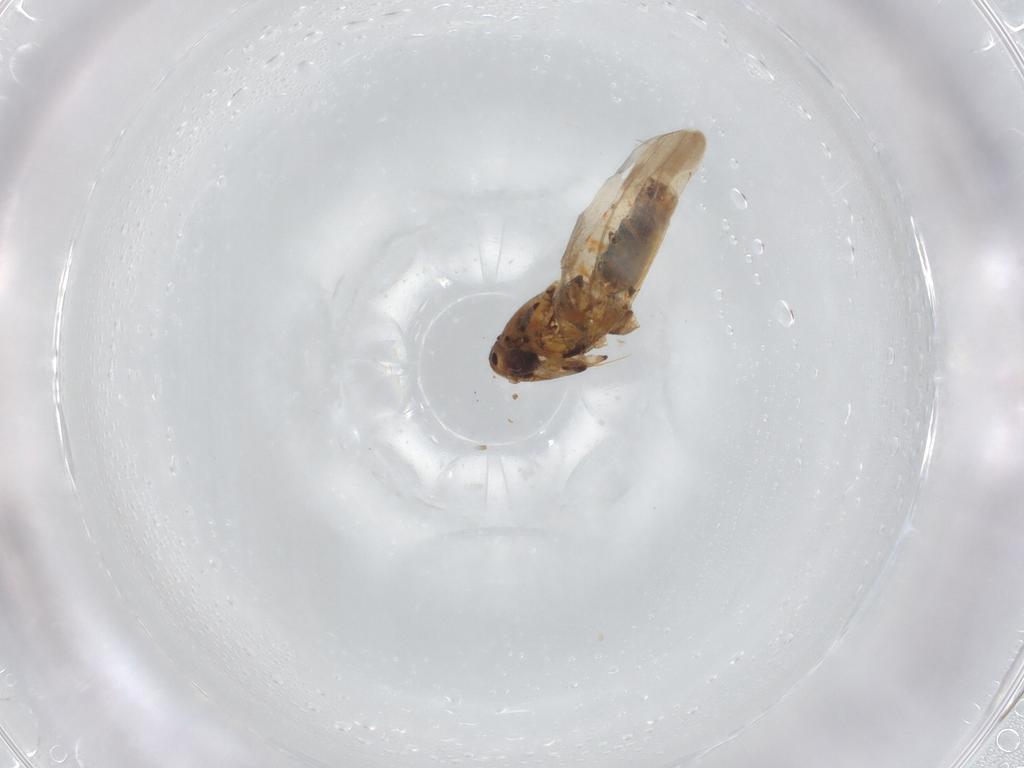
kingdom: Animalia
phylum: Arthropoda
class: Insecta
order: Hemiptera
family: Cicadellidae
